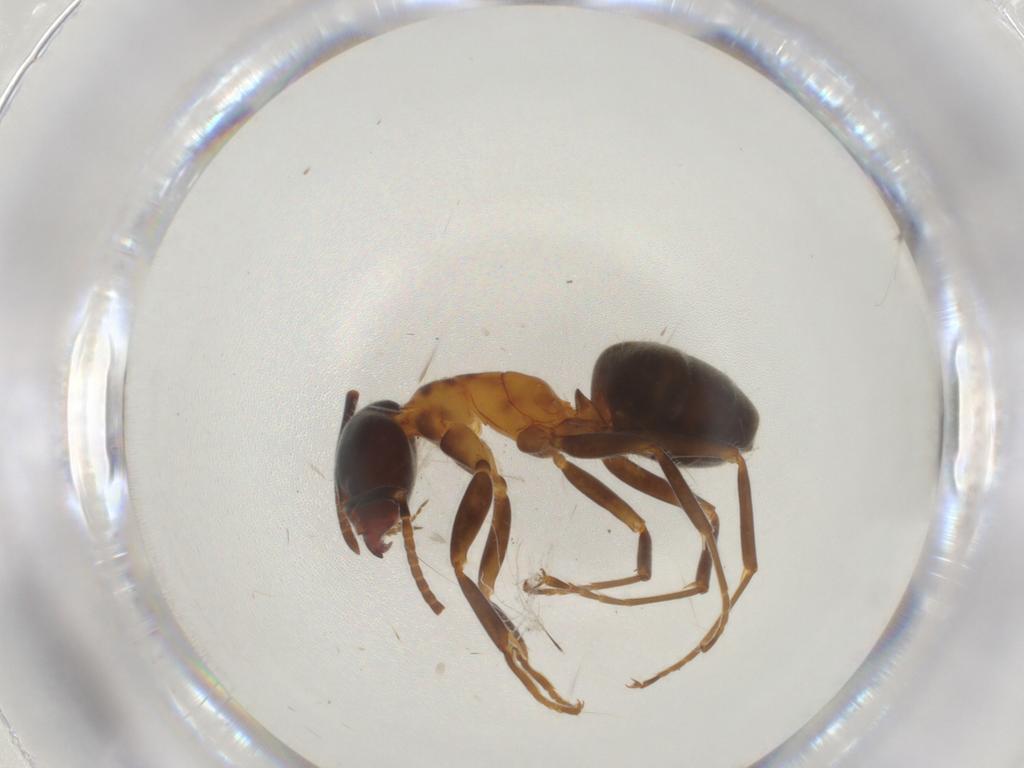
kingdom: Animalia
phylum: Arthropoda
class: Insecta
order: Hymenoptera
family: Formicidae
